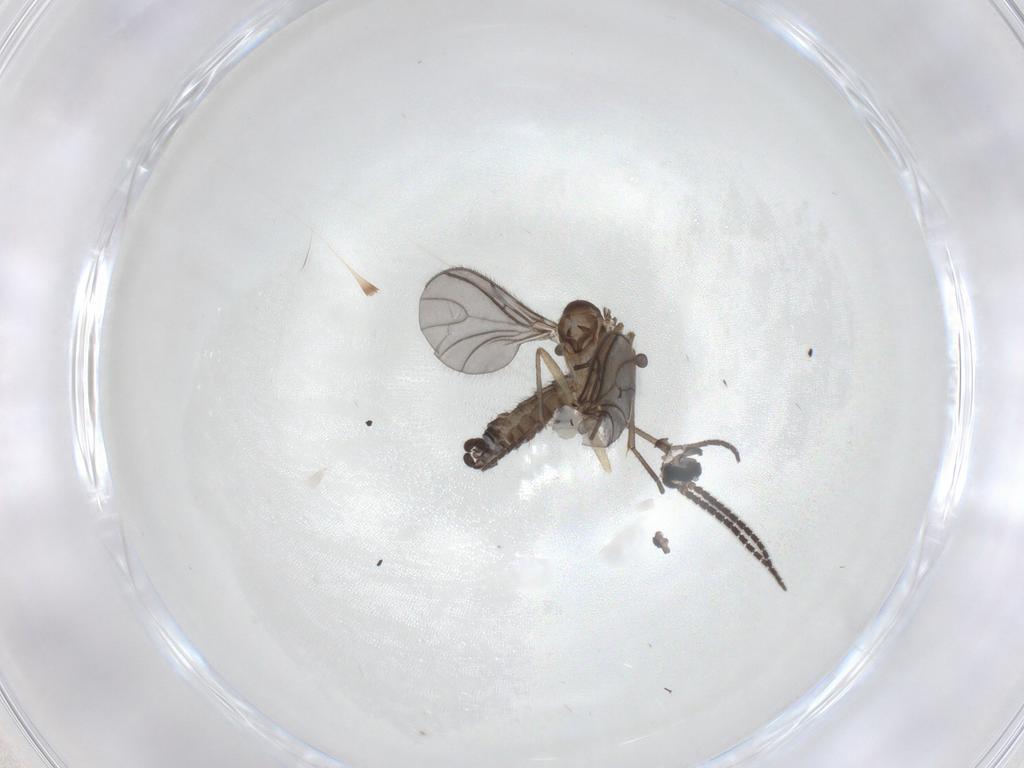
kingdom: Animalia
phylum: Arthropoda
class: Insecta
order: Diptera
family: Sciaridae
